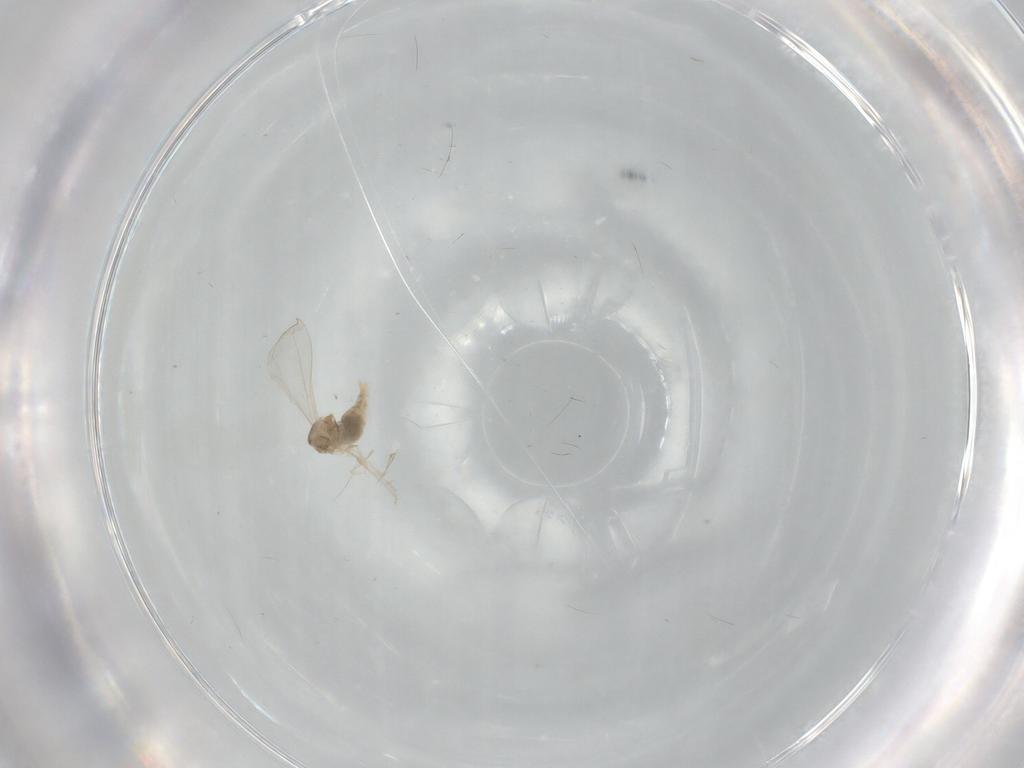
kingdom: Animalia
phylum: Arthropoda
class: Insecta
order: Diptera
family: Cecidomyiidae
